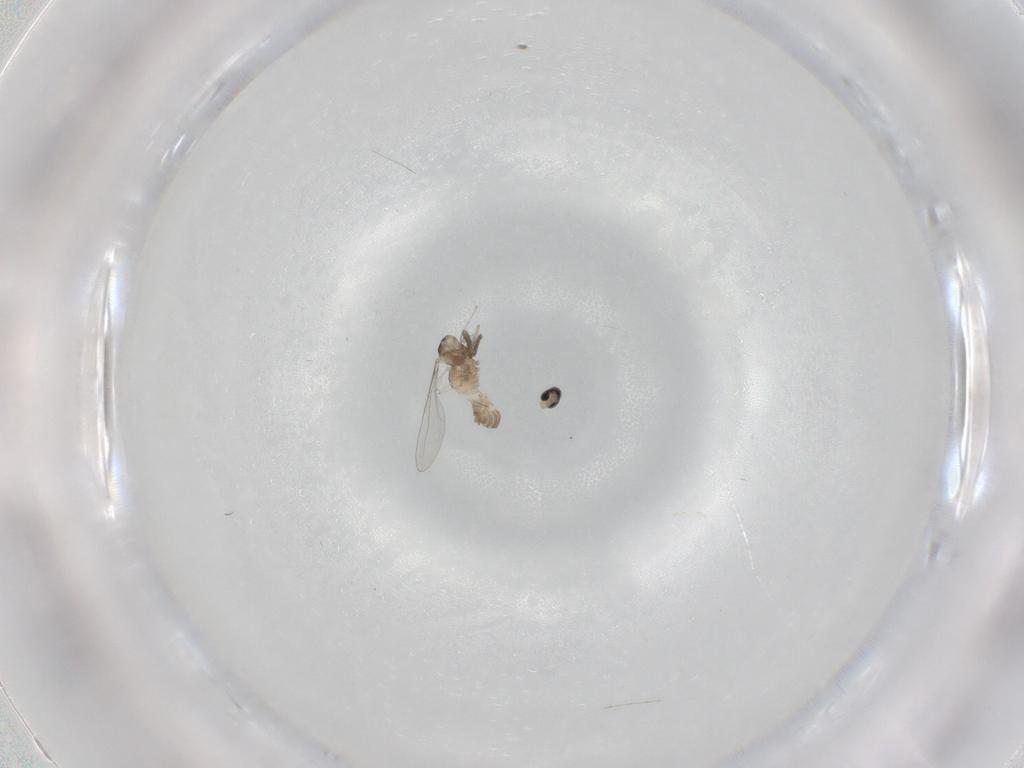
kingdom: Animalia
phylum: Arthropoda
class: Insecta
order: Diptera
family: Cecidomyiidae
